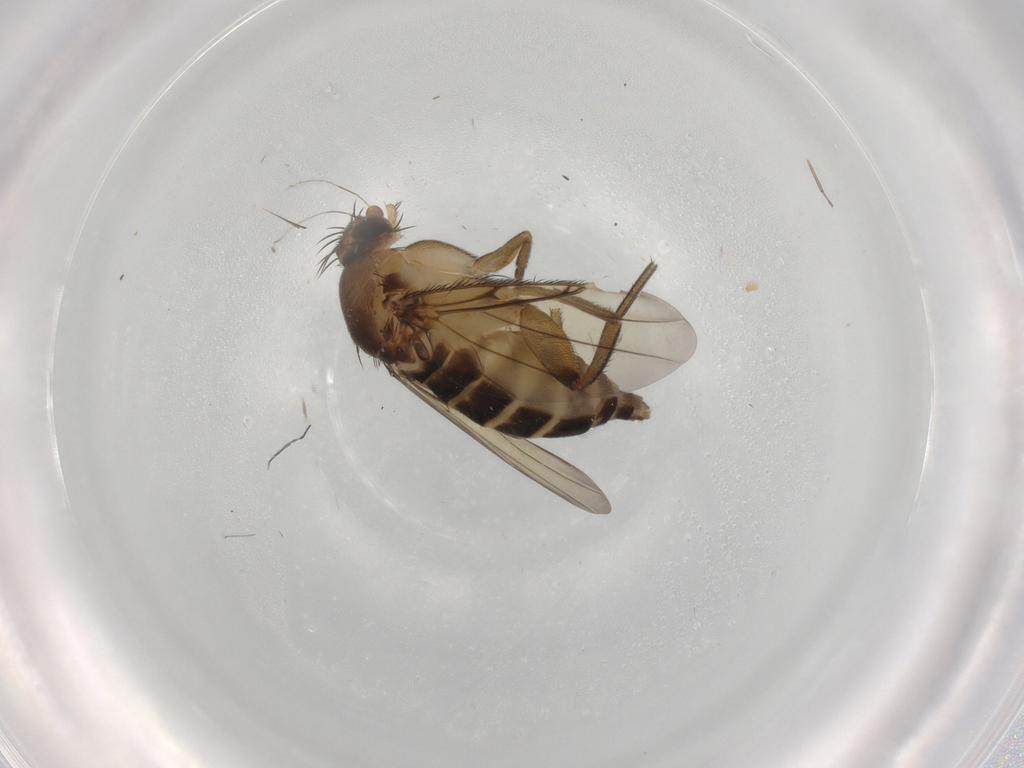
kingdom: Animalia
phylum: Arthropoda
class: Insecta
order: Diptera
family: Phoridae
